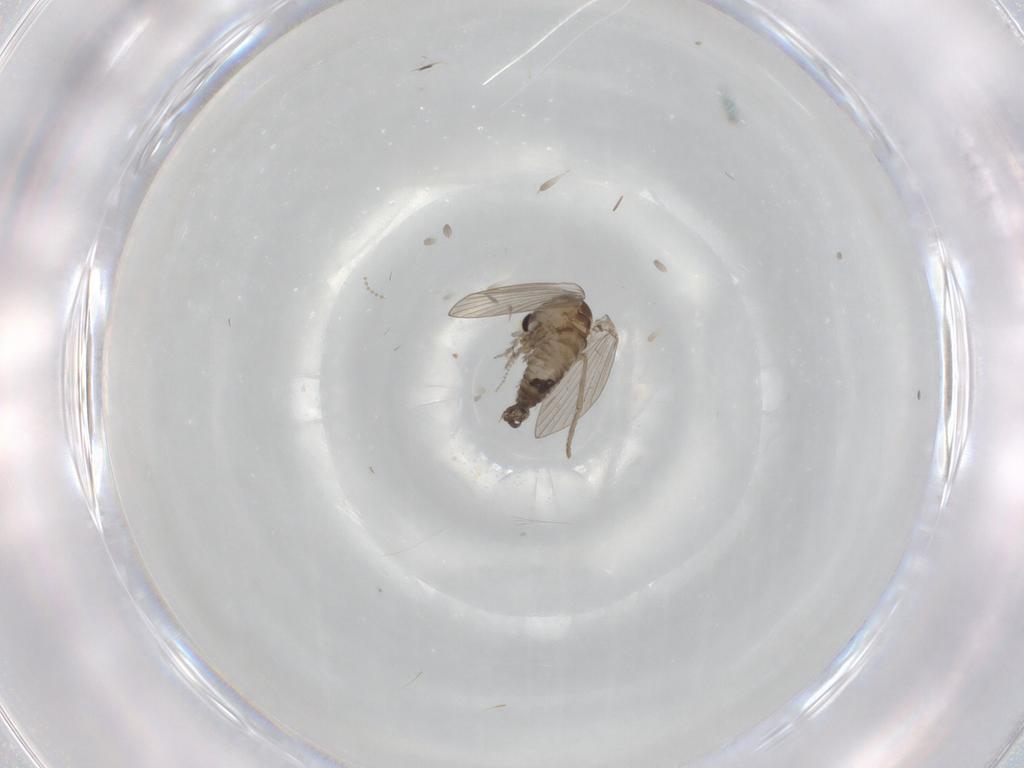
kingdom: Animalia
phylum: Arthropoda
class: Insecta
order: Diptera
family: Psychodidae
